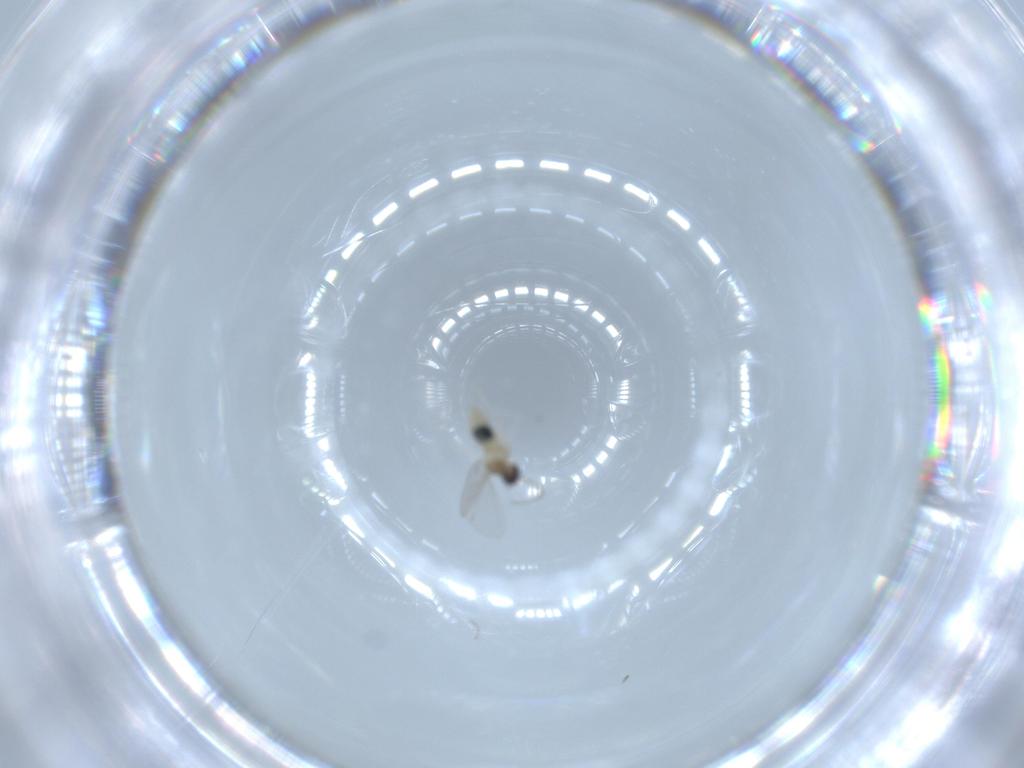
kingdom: Animalia
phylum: Arthropoda
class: Insecta
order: Diptera
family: Cecidomyiidae
